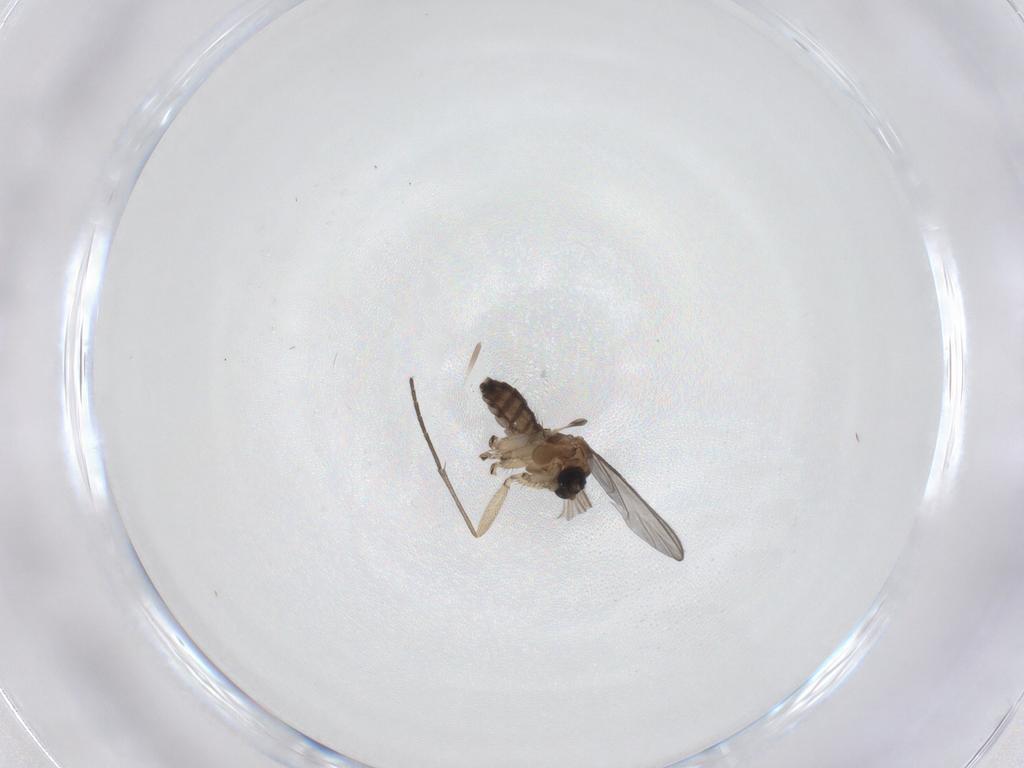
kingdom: Animalia
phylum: Arthropoda
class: Insecta
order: Diptera
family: Sciaridae
